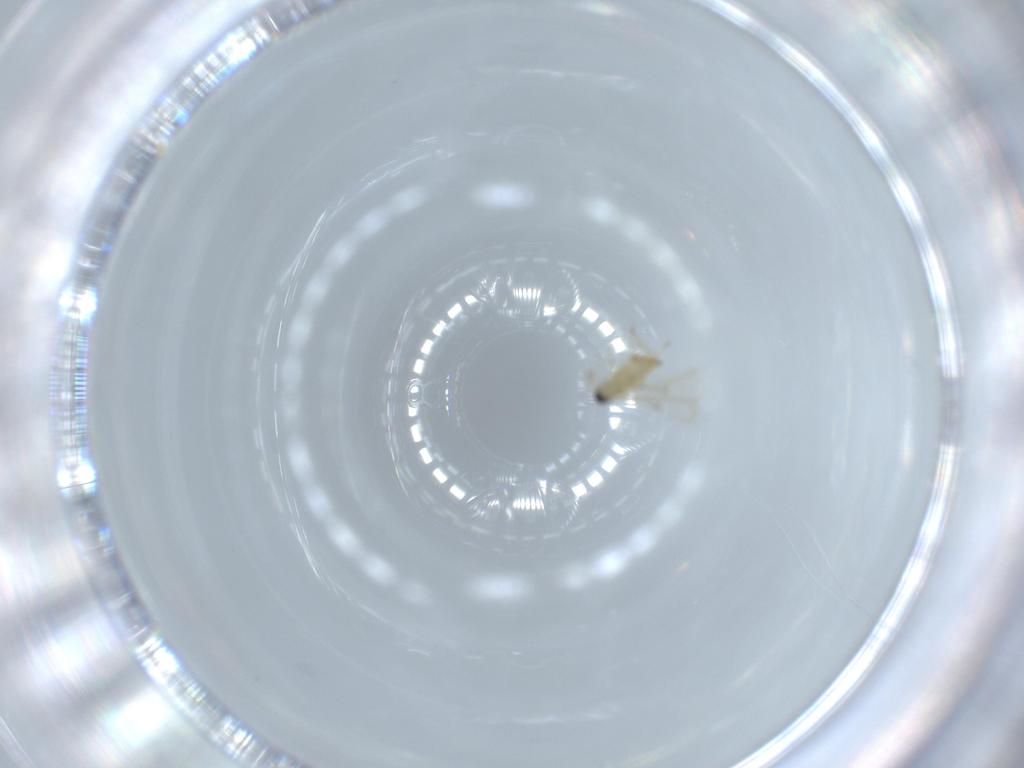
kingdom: Animalia
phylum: Arthropoda
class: Insecta
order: Hymenoptera
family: Trichogrammatidae
